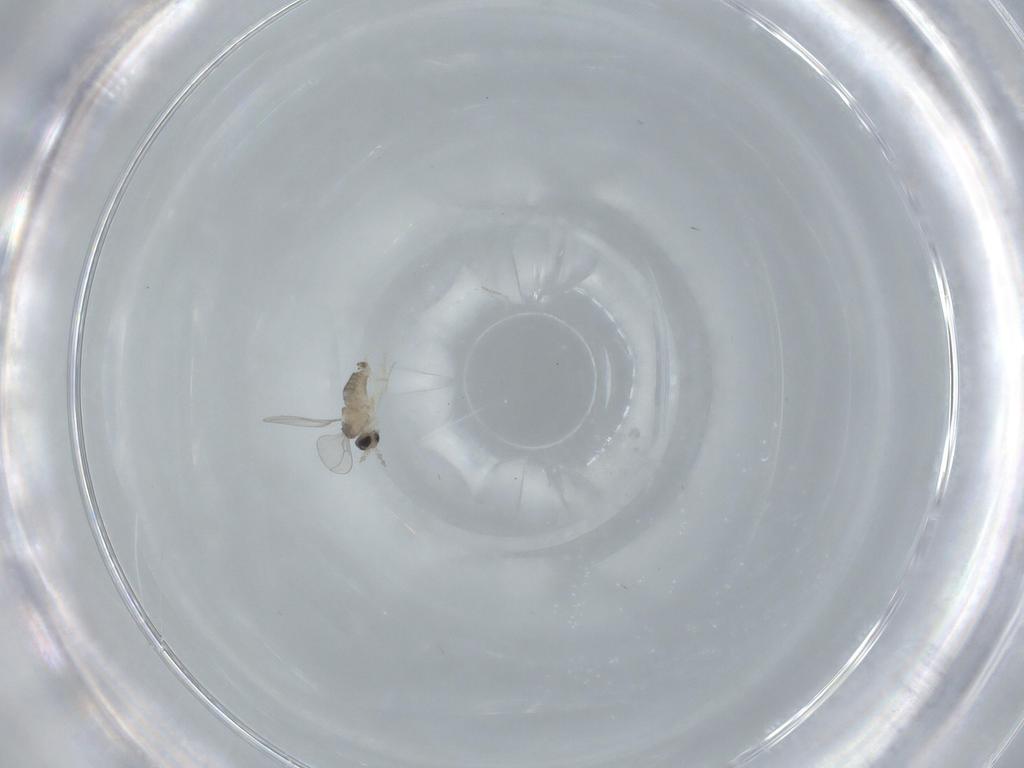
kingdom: Animalia
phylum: Arthropoda
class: Insecta
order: Diptera
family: Cecidomyiidae
